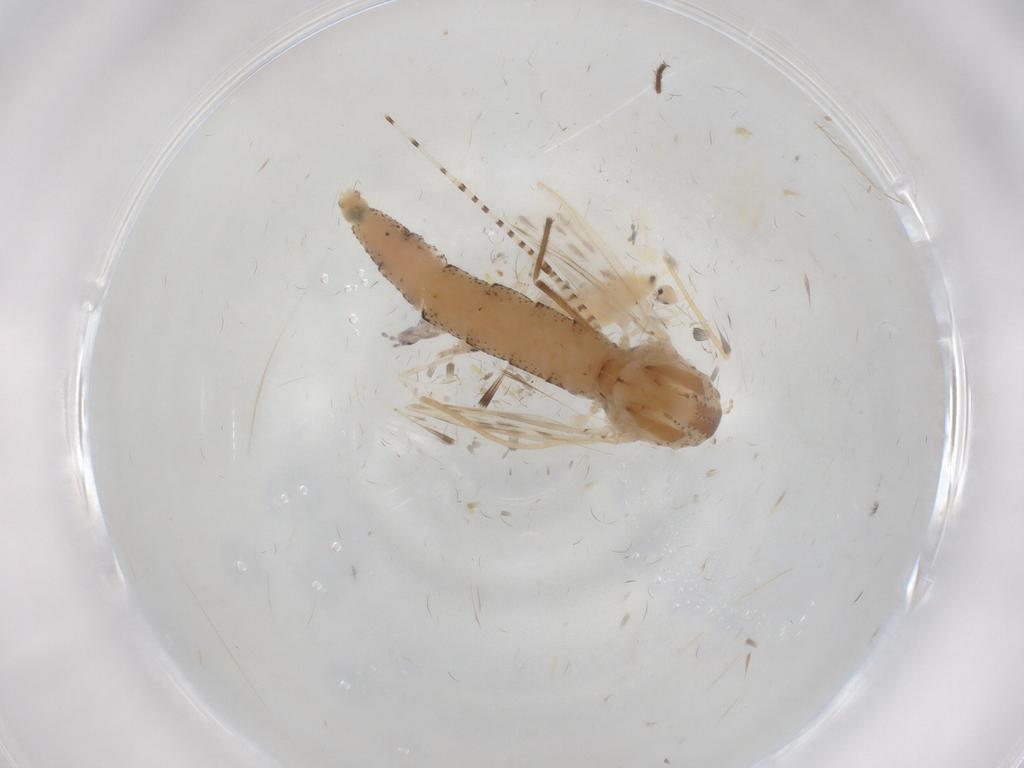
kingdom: Animalia
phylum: Arthropoda
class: Insecta
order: Diptera
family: Chaoboridae
